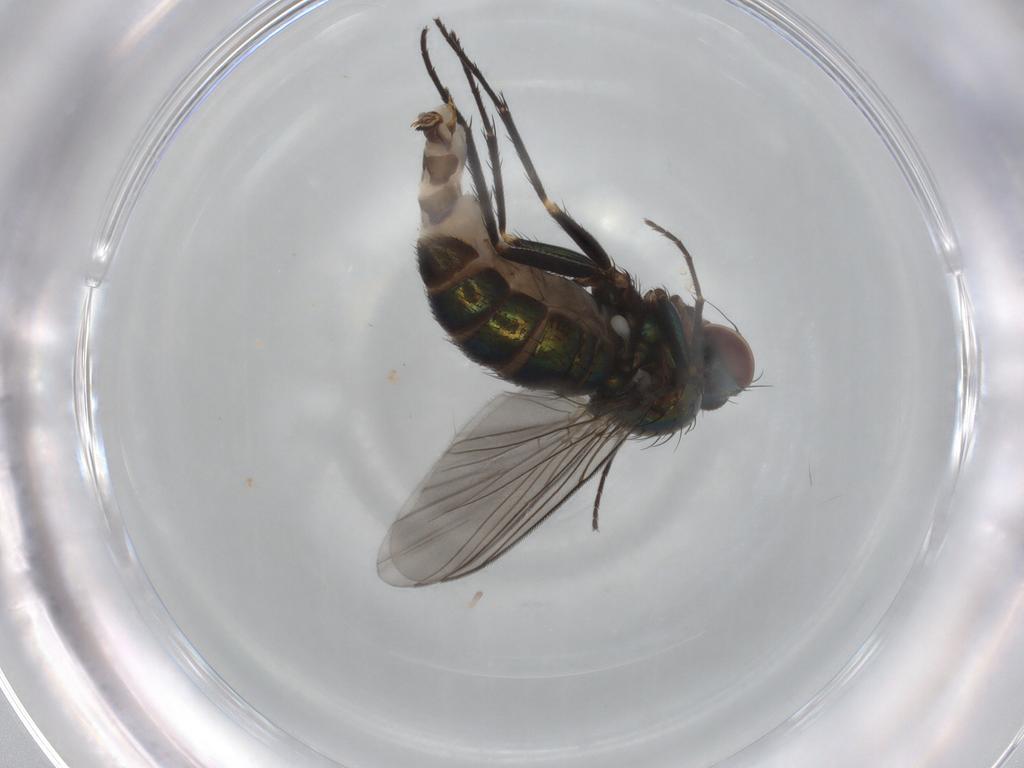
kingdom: Animalia
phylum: Arthropoda
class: Insecta
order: Diptera
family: Dolichopodidae
